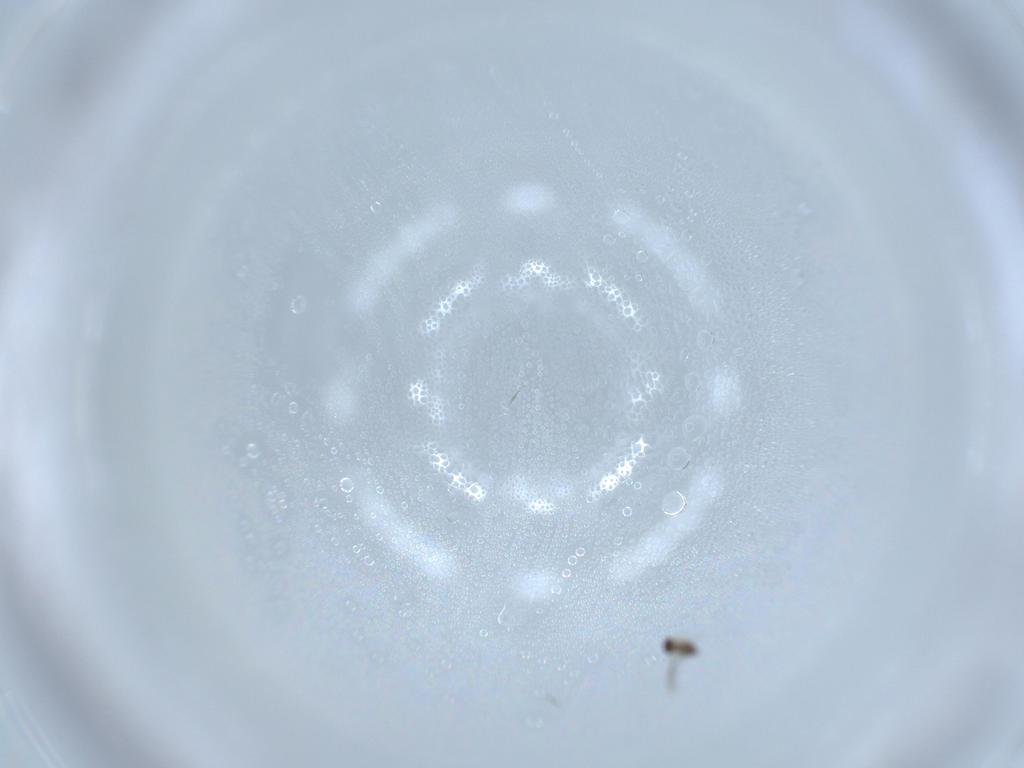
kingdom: Animalia
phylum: Arthropoda
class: Insecta
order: Hymenoptera
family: Mymaridae
